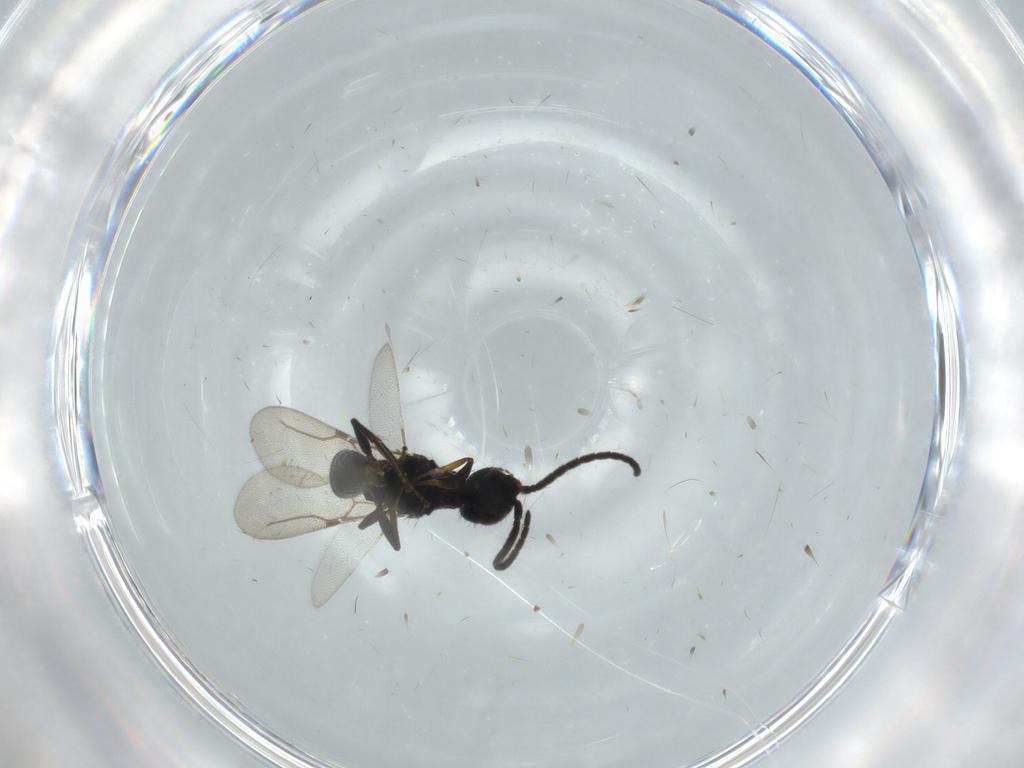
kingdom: Animalia
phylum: Arthropoda
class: Insecta
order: Hymenoptera
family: Bethylidae
